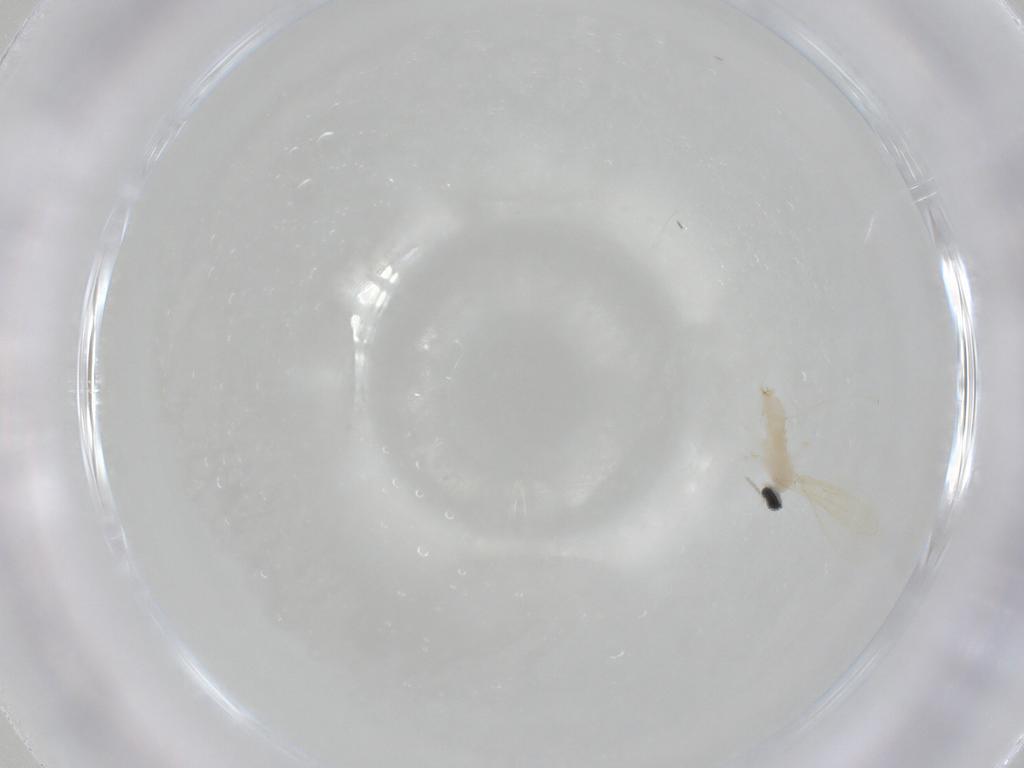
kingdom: Animalia
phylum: Arthropoda
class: Insecta
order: Diptera
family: Cecidomyiidae
